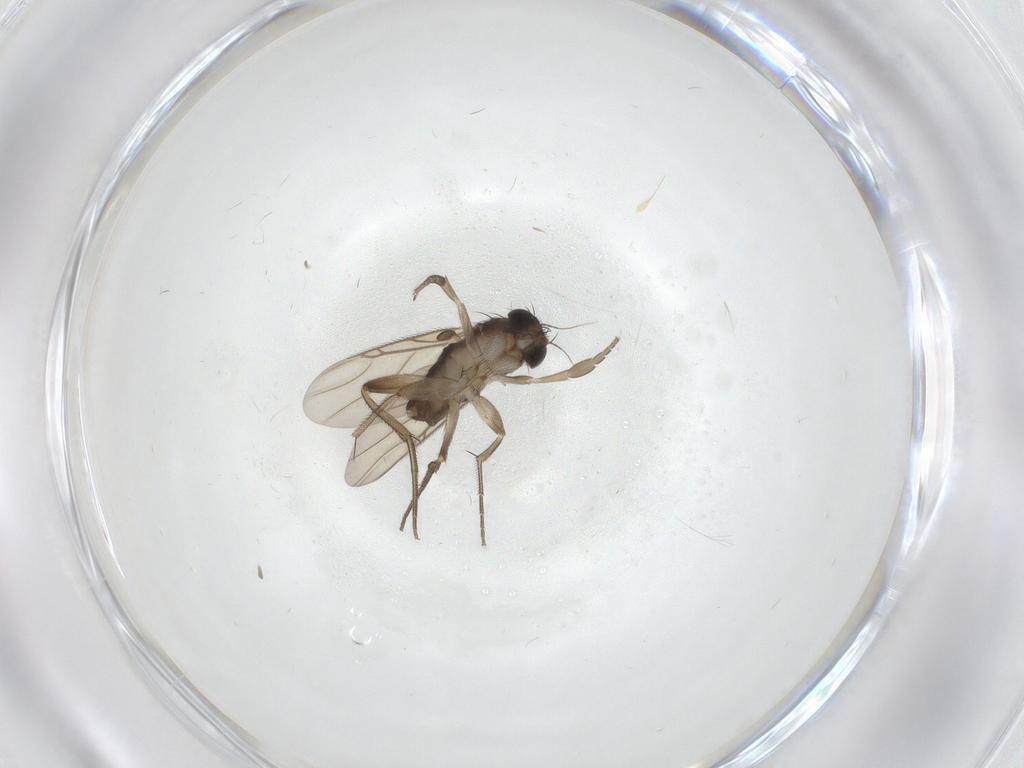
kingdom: Animalia
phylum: Arthropoda
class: Insecta
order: Diptera
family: Phoridae
